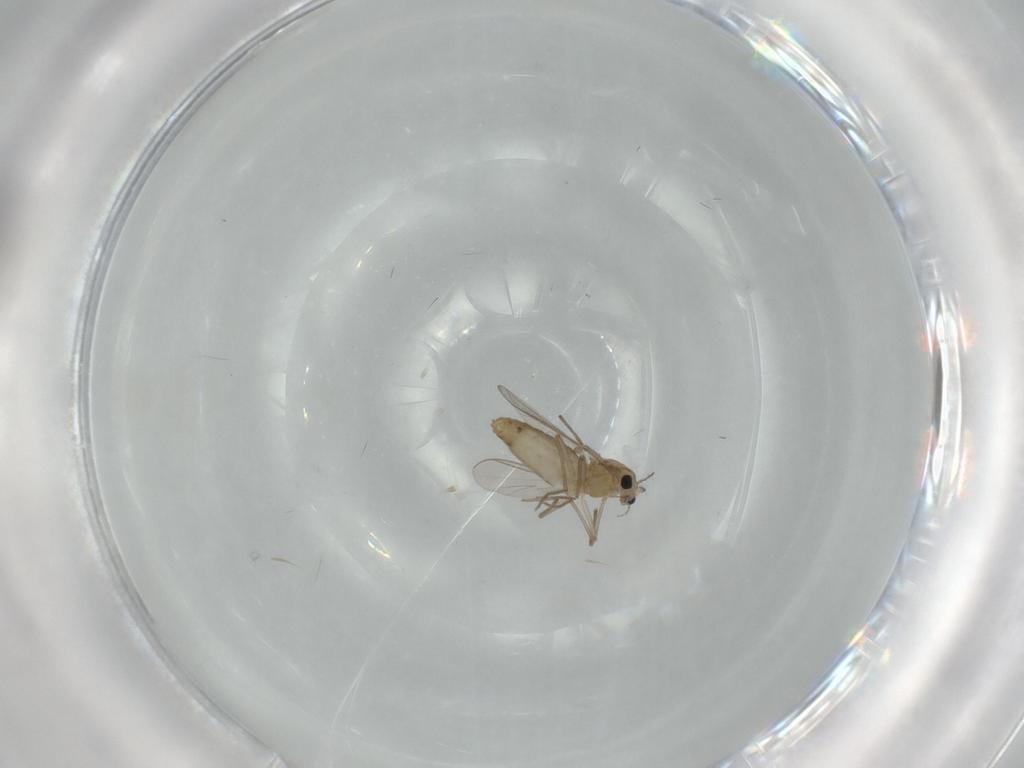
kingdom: Animalia
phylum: Arthropoda
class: Insecta
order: Diptera
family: Chironomidae
